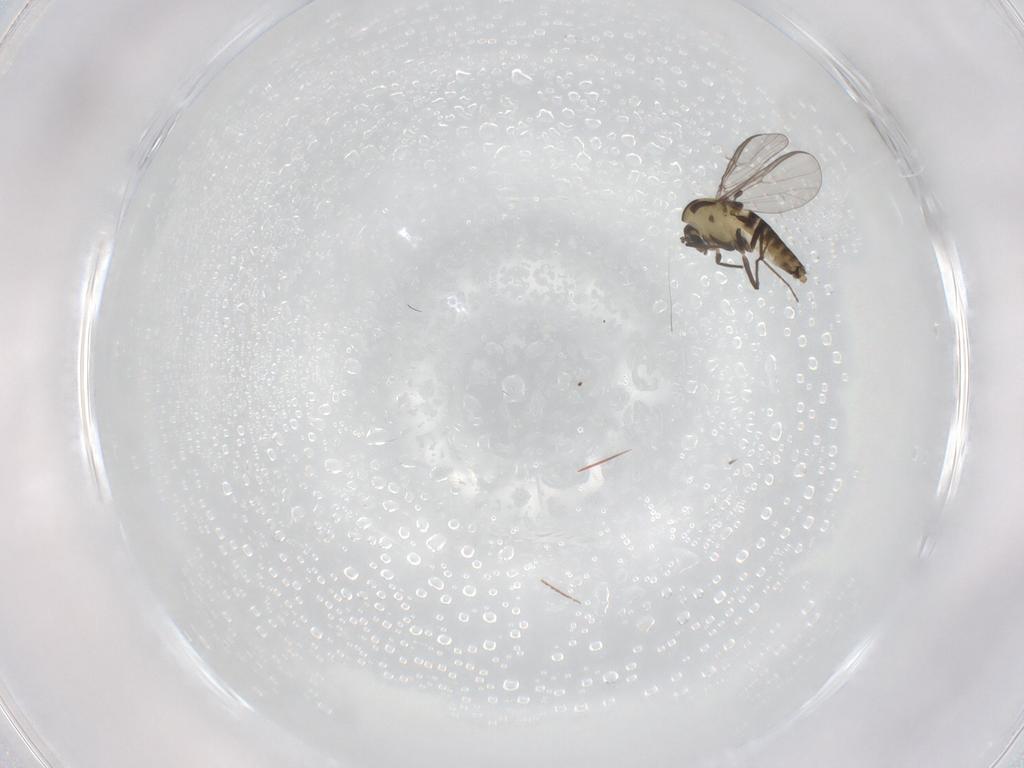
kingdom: Animalia
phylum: Arthropoda
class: Insecta
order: Diptera
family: Chironomidae
